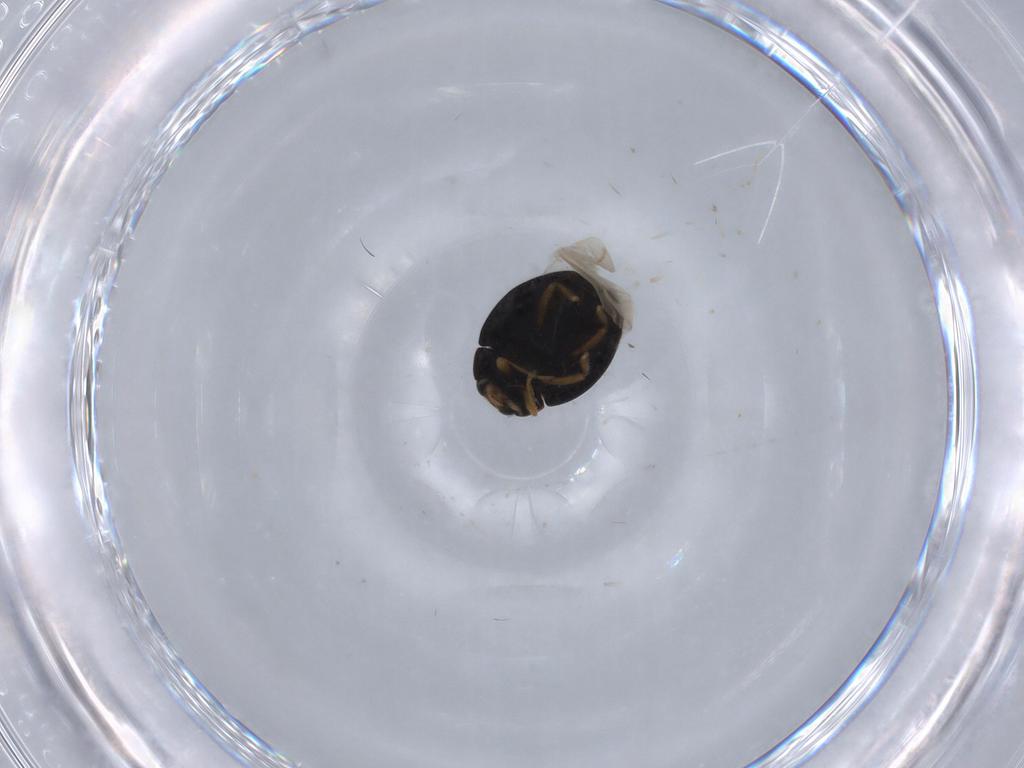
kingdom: Animalia
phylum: Arthropoda
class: Insecta
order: Coleoptera
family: Coccinellidae
